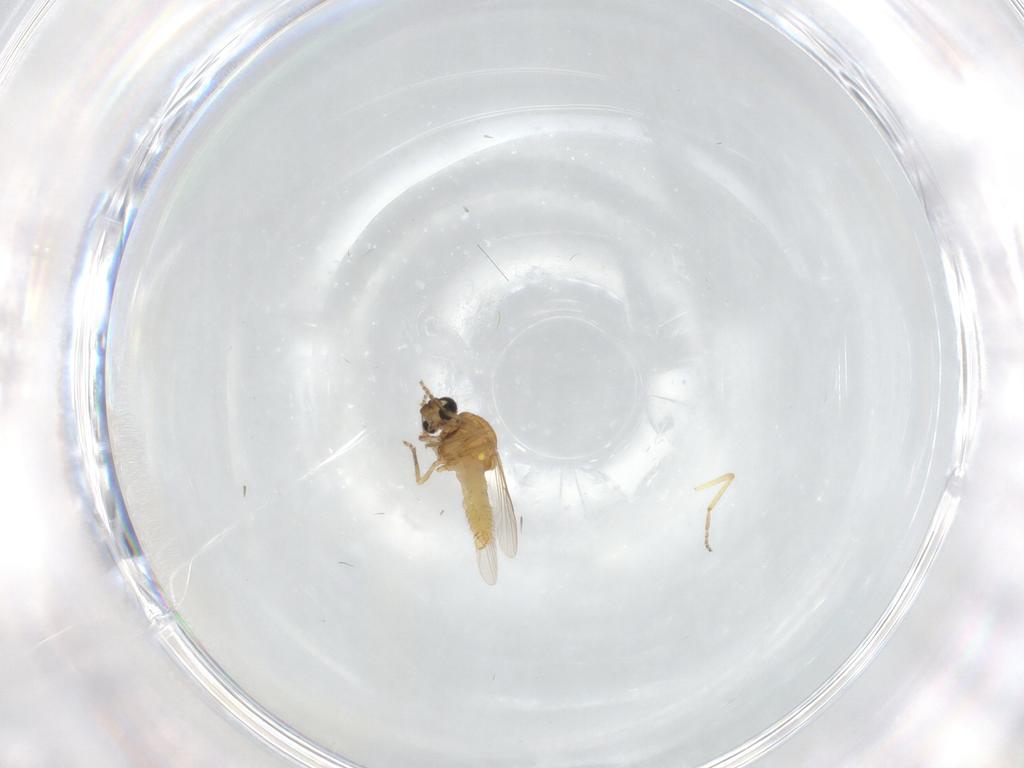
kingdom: Animalia
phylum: Arthropoda
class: Insecta
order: Diptera
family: Ceratopogonidae
